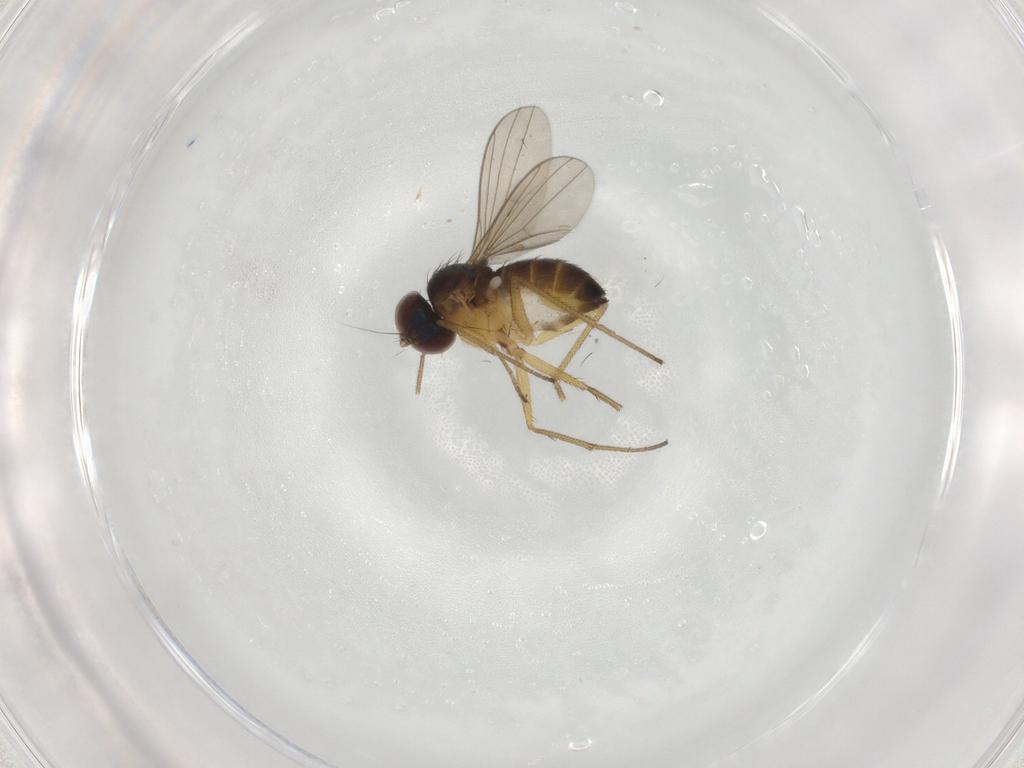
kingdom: Animalia
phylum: Arthropoda
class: Insecta
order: Diptera
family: Dolichopodidae
